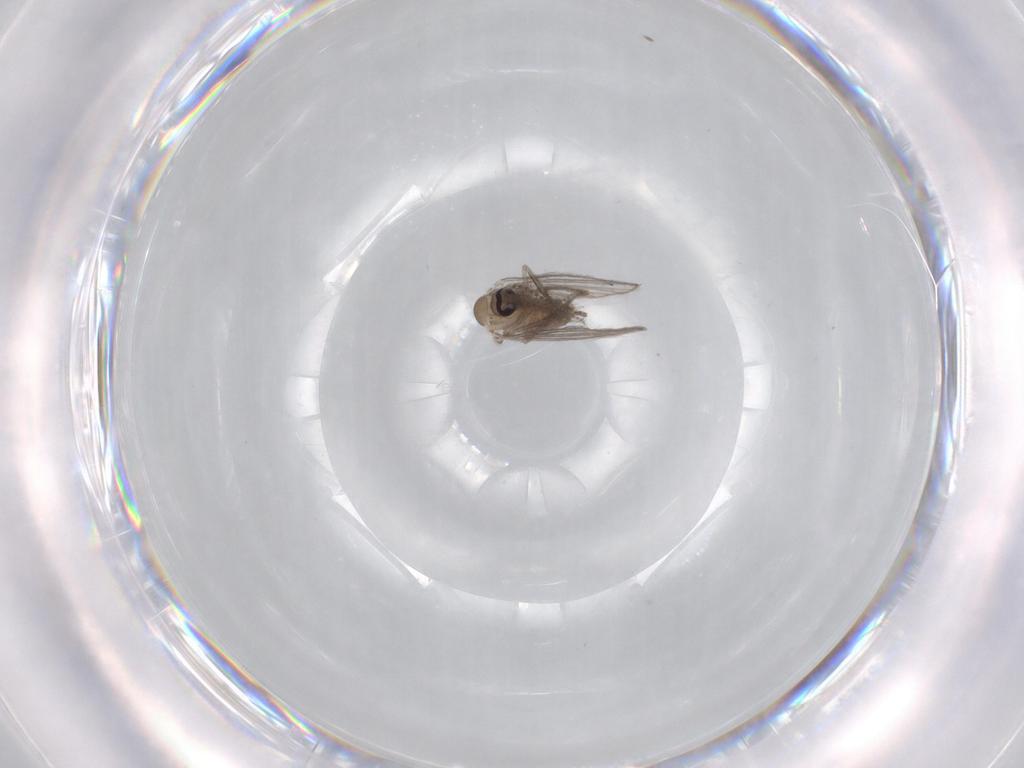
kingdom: Animalia
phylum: Arthropoda
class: Insecta
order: Diptera
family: Psychodidae
